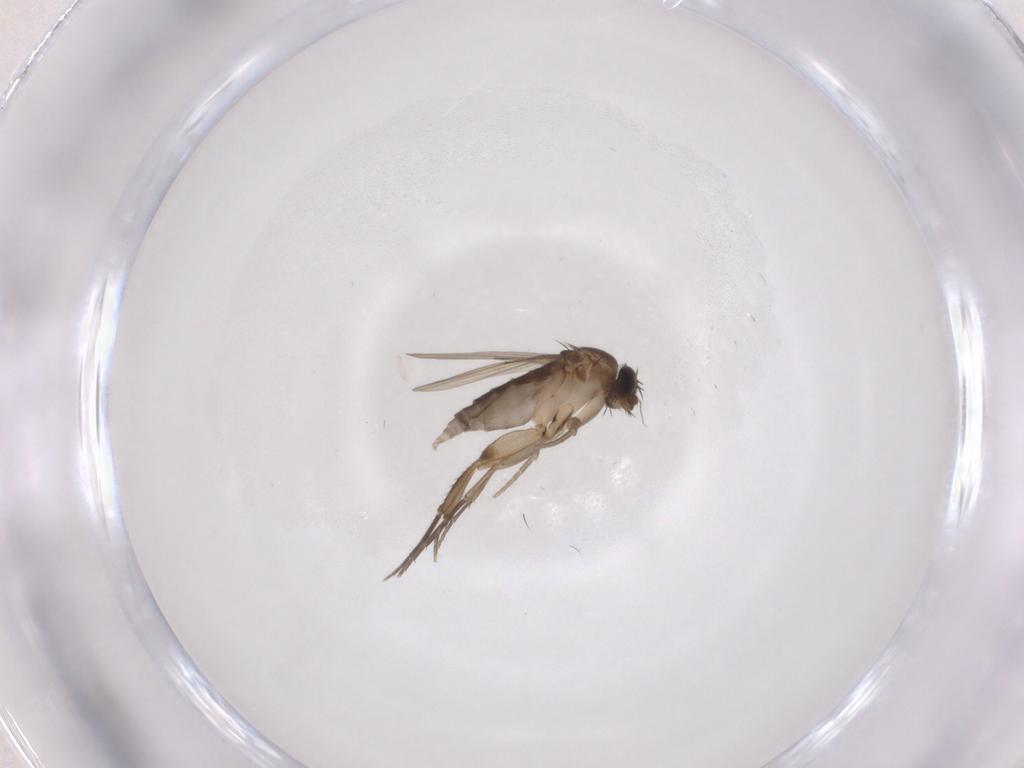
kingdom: Animalia
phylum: Arthropoda
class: Insecta
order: Diptera
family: Phoridae
